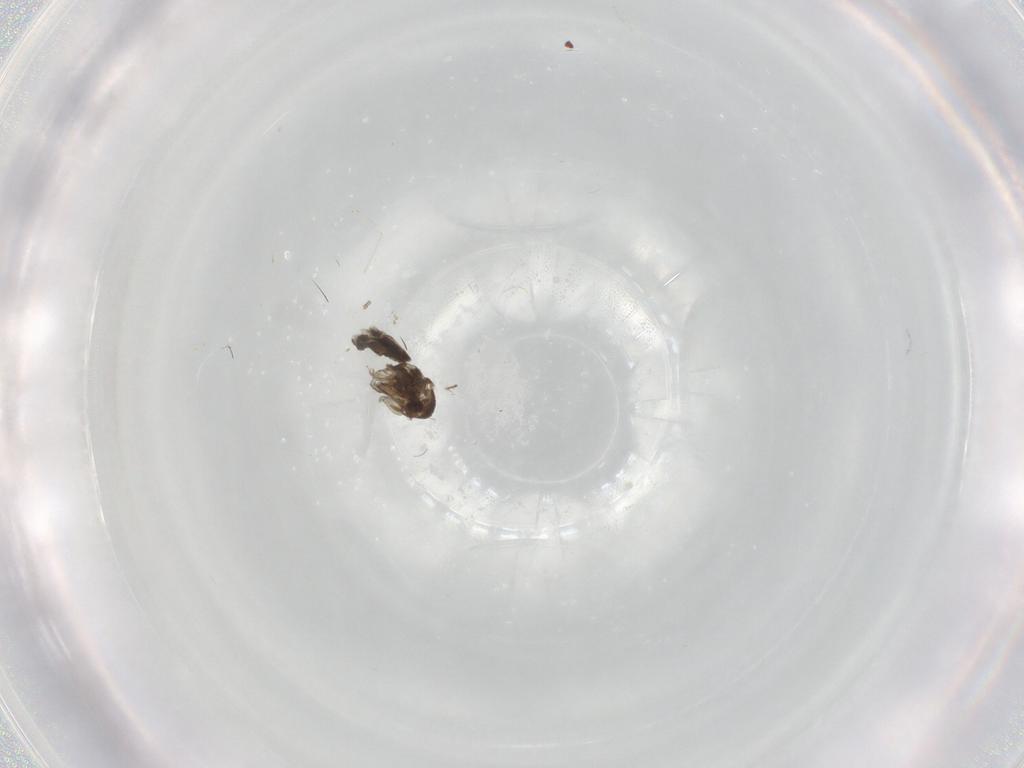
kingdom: Animalia
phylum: Arthropoda
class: Insecta
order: Diptera
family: Cecidomyiidae
